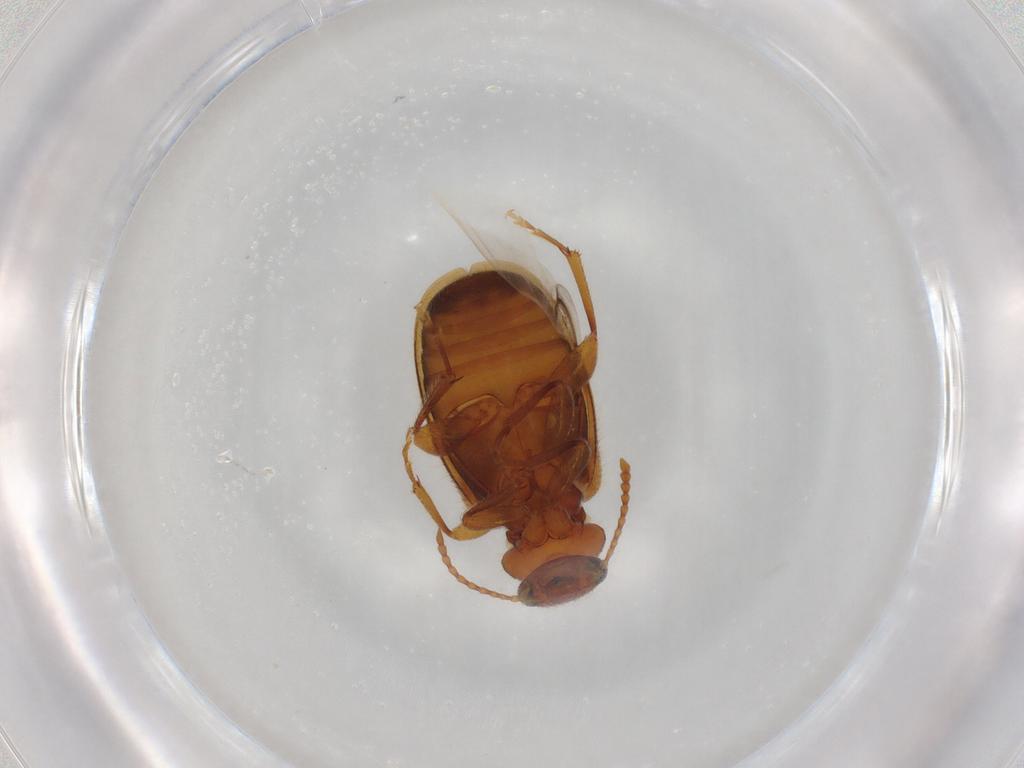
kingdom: Animalia
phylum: Arthropoda
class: Insecta
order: Coleoptera
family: Anthicidae
